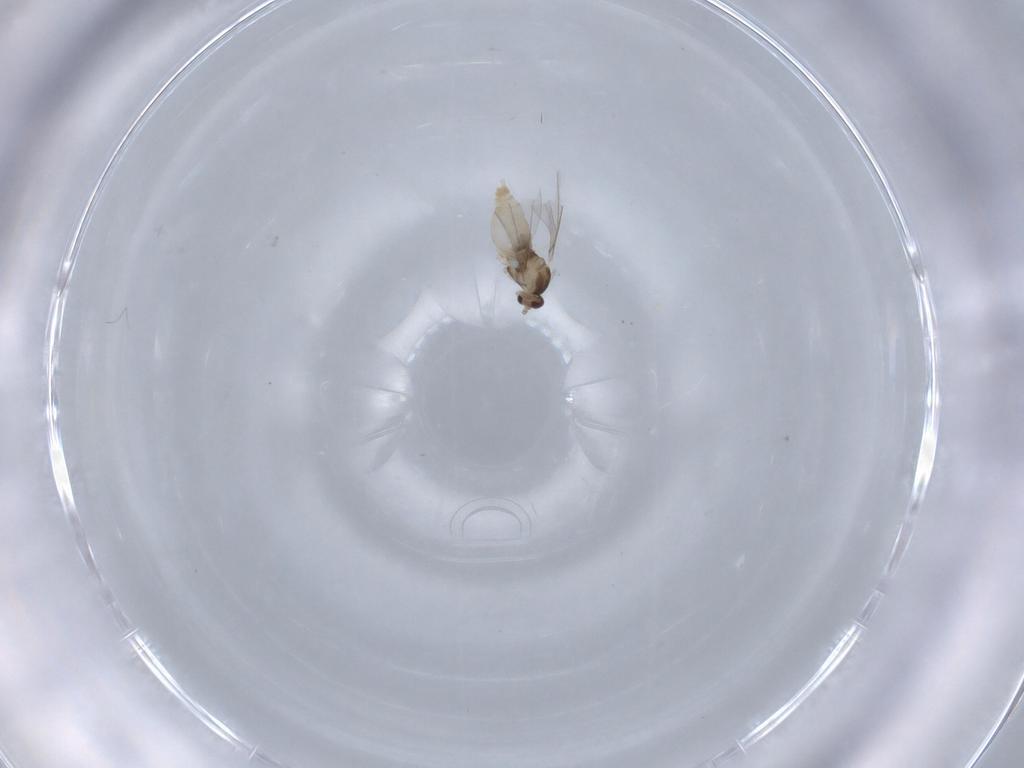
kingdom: Animalia
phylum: Arthropoda
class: Insecta
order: Diptera
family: Cecidomyiidae
